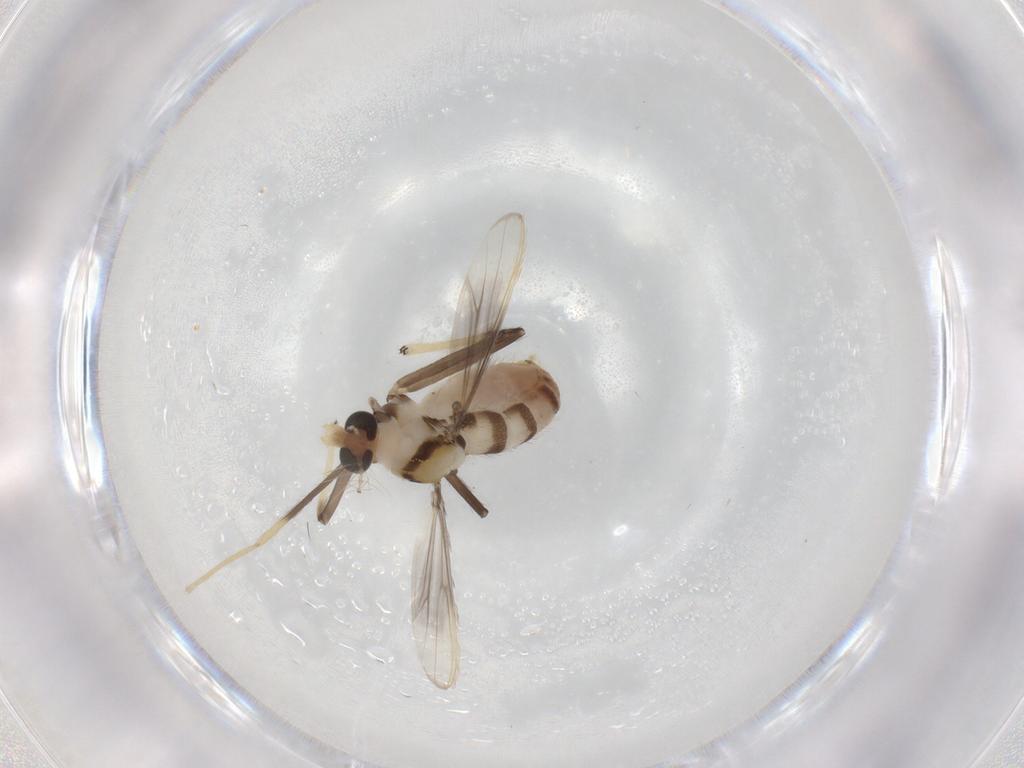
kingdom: Animalia
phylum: Arthropoda
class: Insecta
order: Diptera
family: Chironomidae
